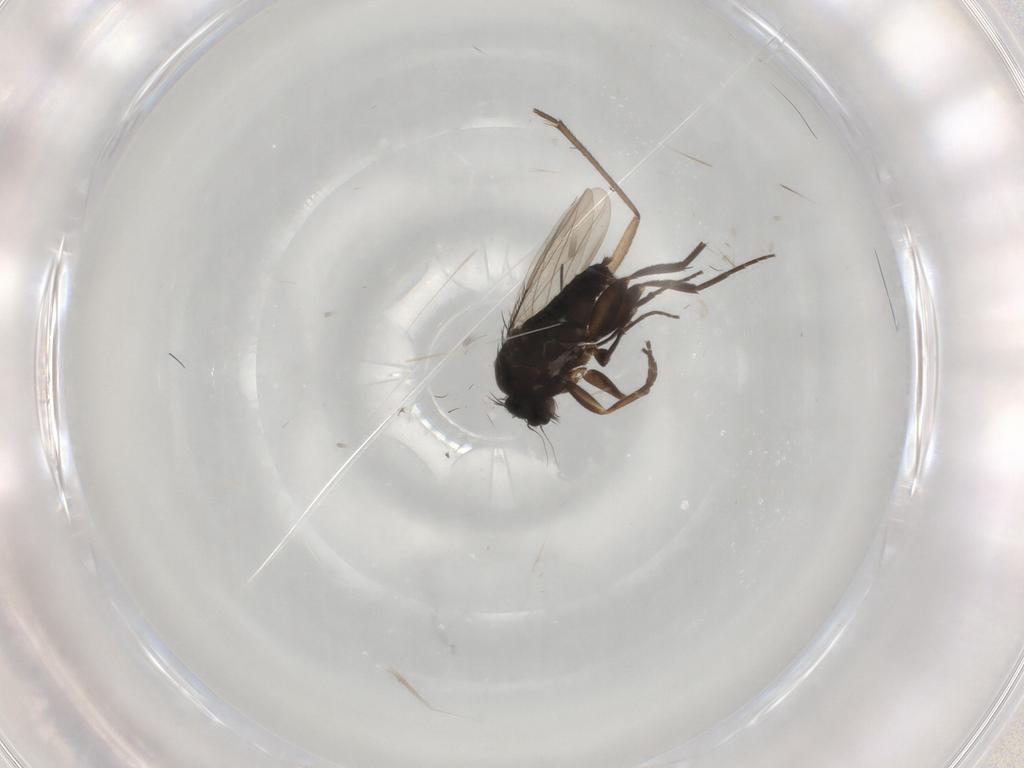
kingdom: Animalia
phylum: Arthropoda
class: Insecta
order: Diptera
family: Phoridae
